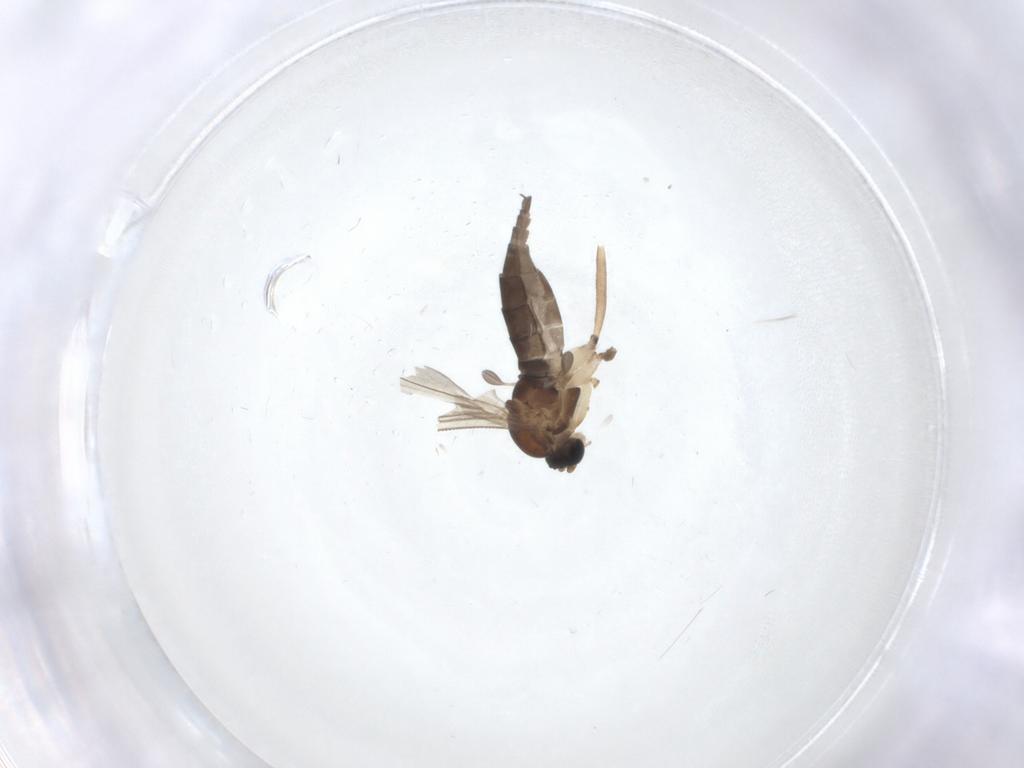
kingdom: Animalia
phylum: Arthropoda
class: Insecta
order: Diptera
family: Sciaridae
